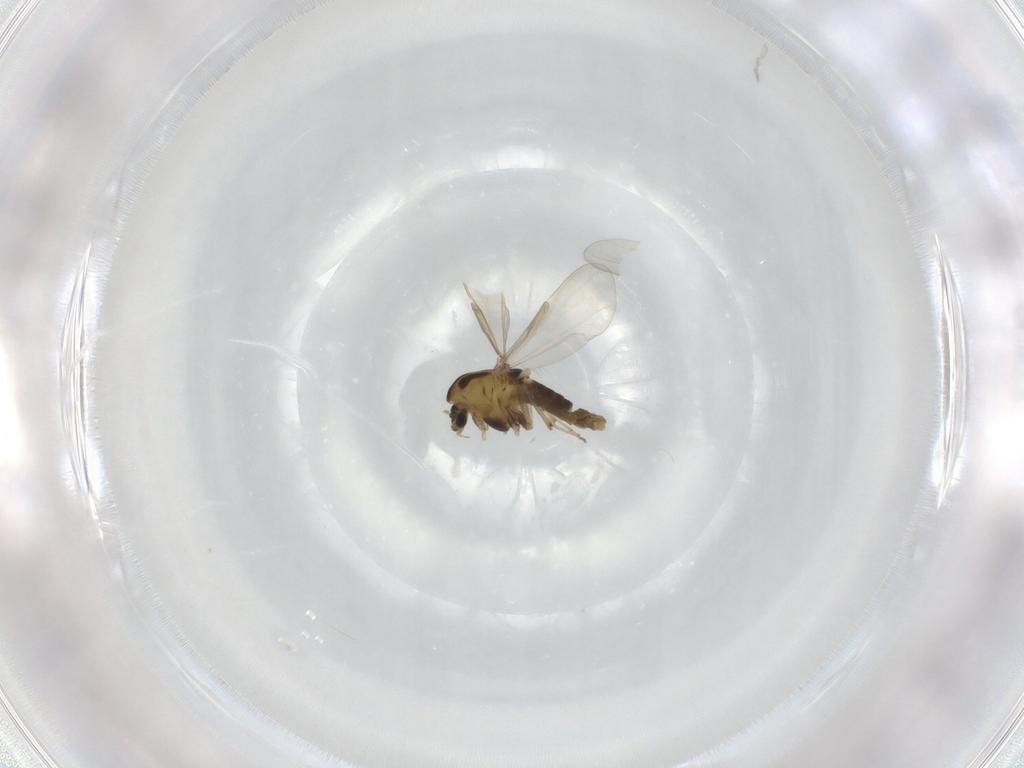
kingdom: Animalia
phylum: Arthropoda
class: Insecta
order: Diptera
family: Chironomidae
